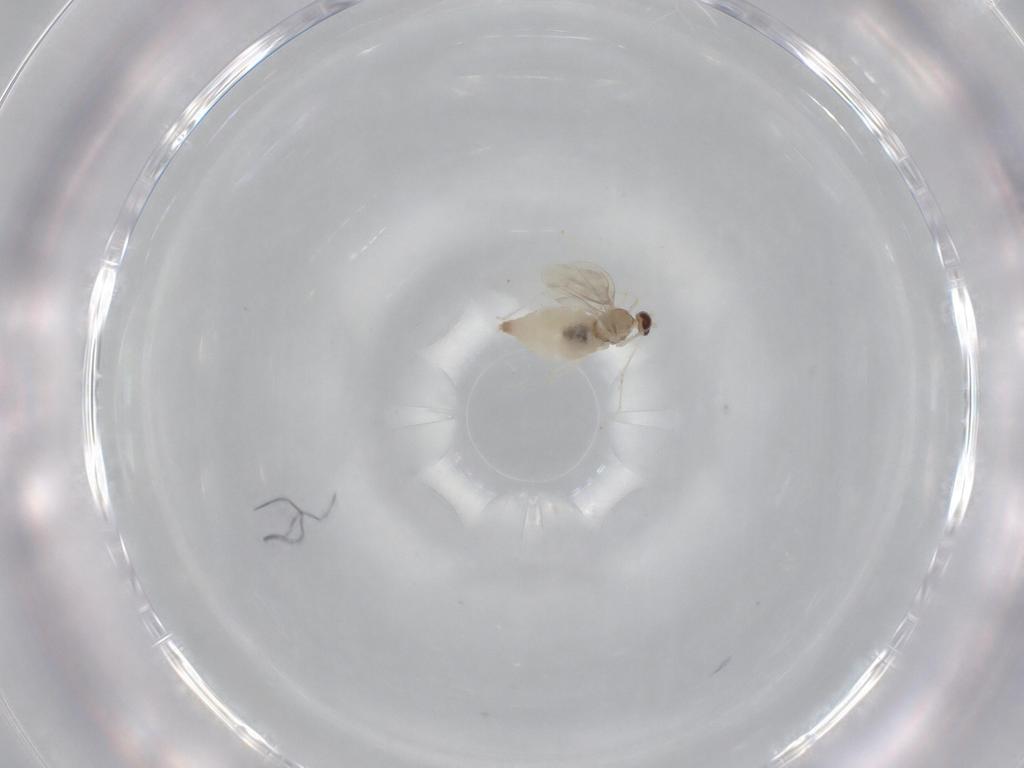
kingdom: Animalia
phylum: Arthropoda
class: Insecta
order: Diptera
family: Cecidomyiidae
